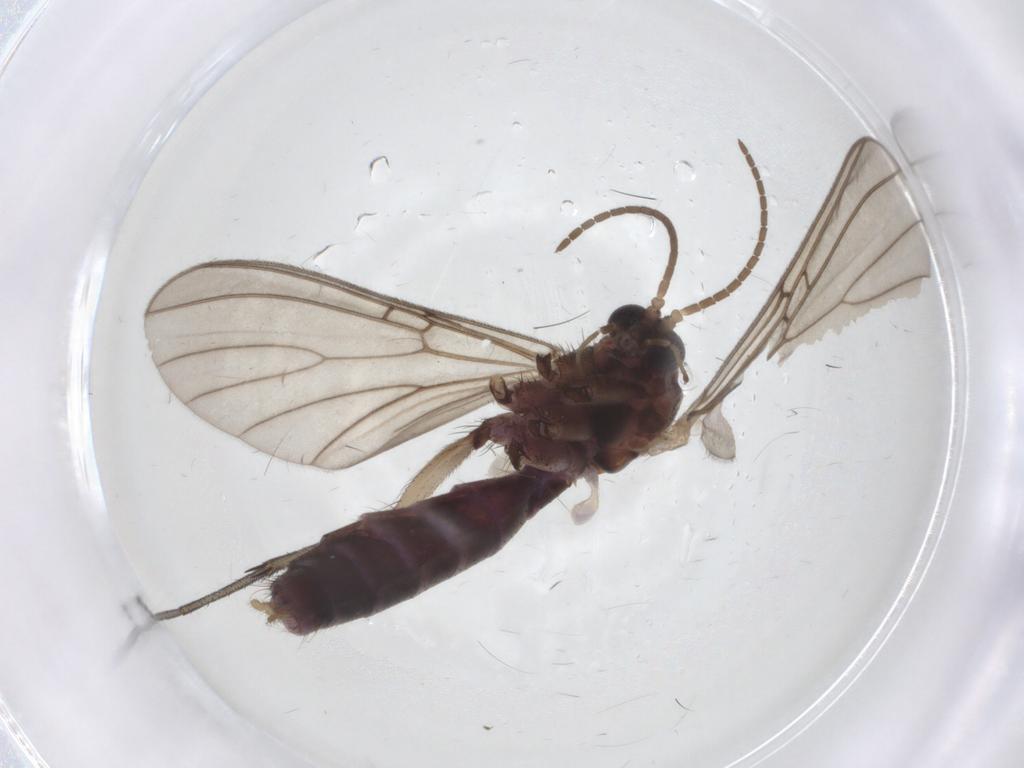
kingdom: Animalia
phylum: Arthropoda
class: Insecta
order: Diptera
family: Mycetophilidae
